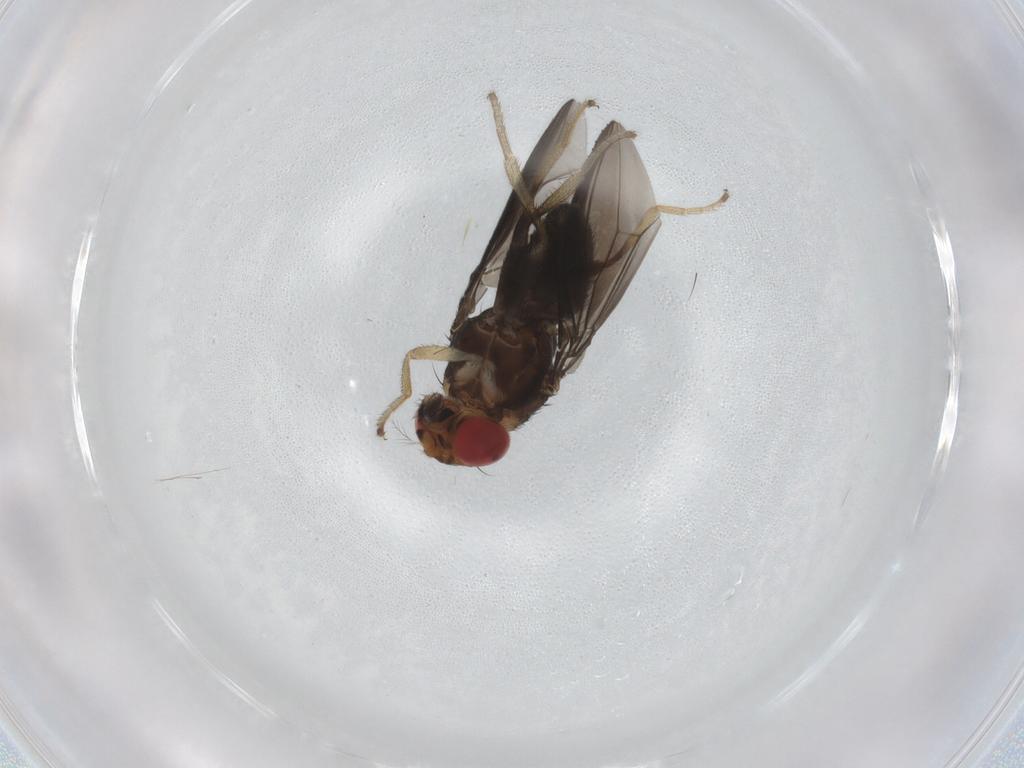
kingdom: Animalia
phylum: Arthropoda
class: Insecta
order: Diptera
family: Drosophilidae
